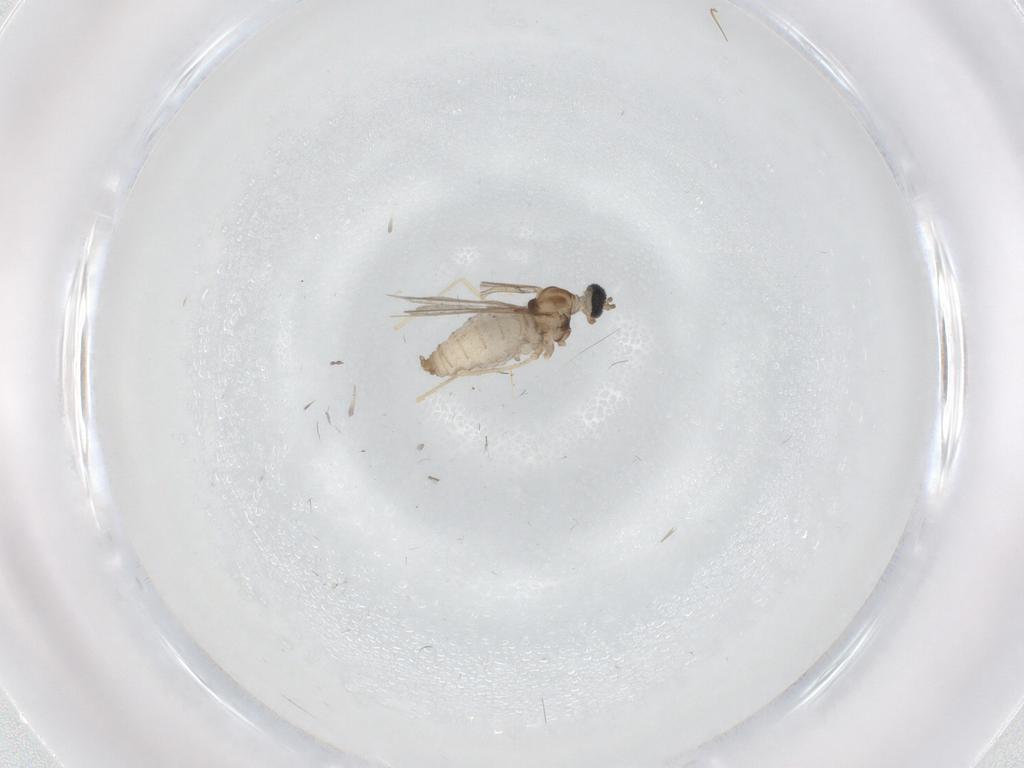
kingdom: Animalia
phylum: Arthropoda
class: Insecta
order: Diptera
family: Cecidomyiidae
